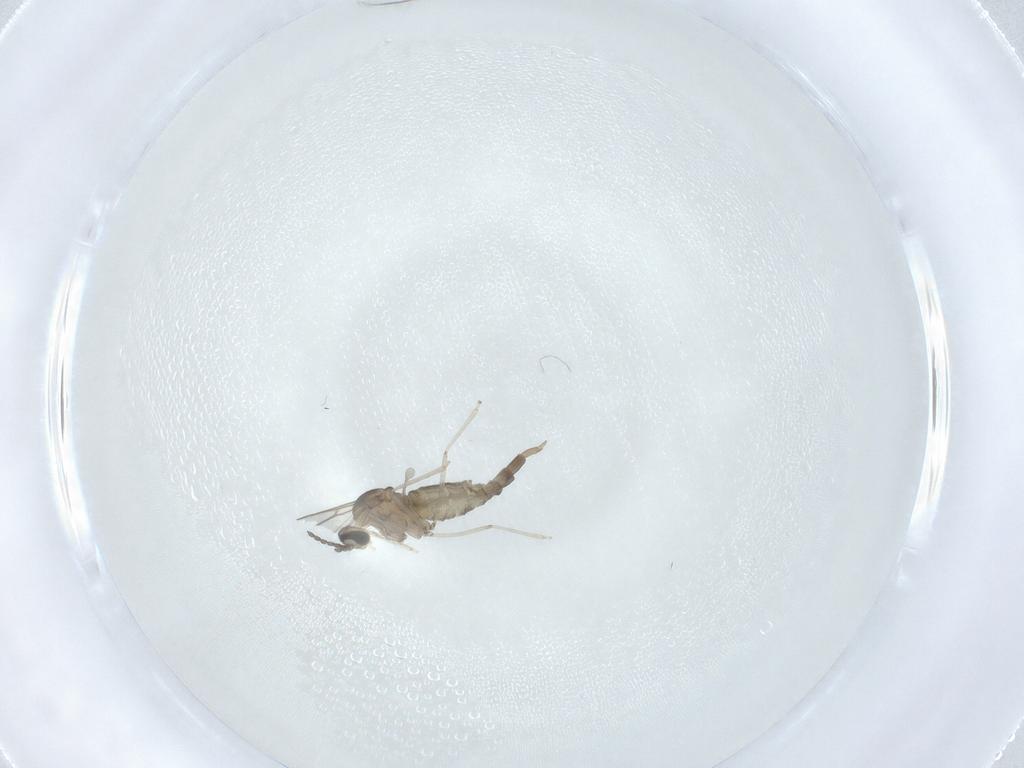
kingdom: Animalia
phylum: Arthropoda
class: Insecta
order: Diptera
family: Cecidomyiidae
